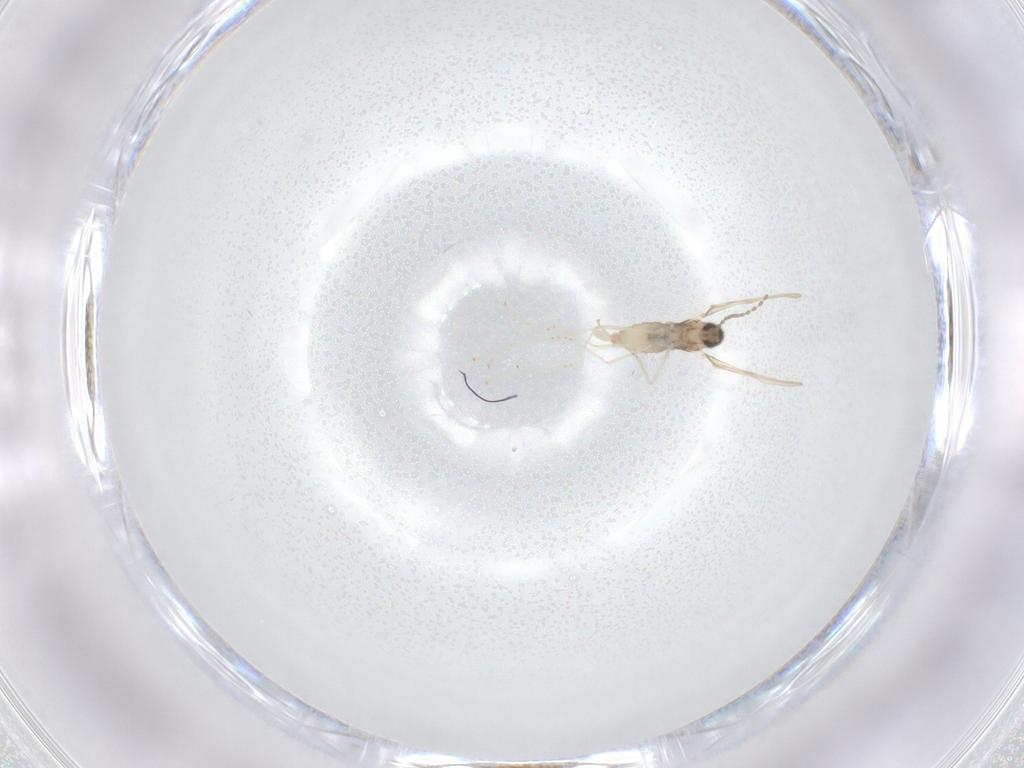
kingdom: Animalia
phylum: Arthropoda
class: Insecta
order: Diptera
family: Cecidomyiidae
